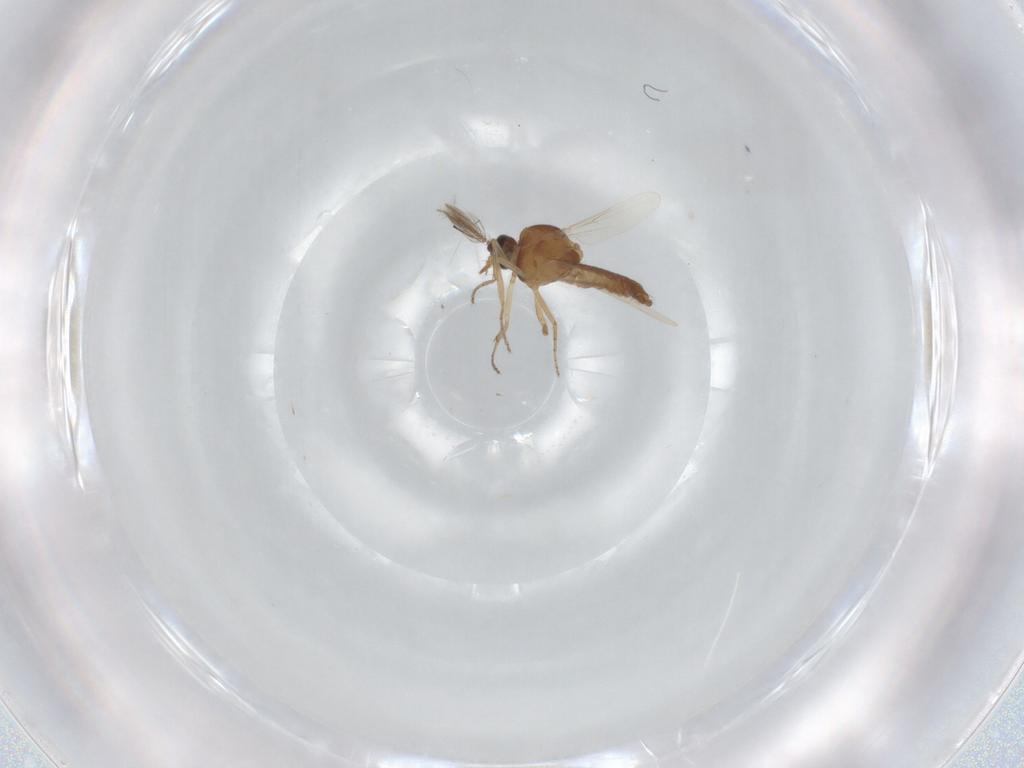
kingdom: Animalia
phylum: Arthropoda
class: Insecta
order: Diptera
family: Ceratopogonidae
